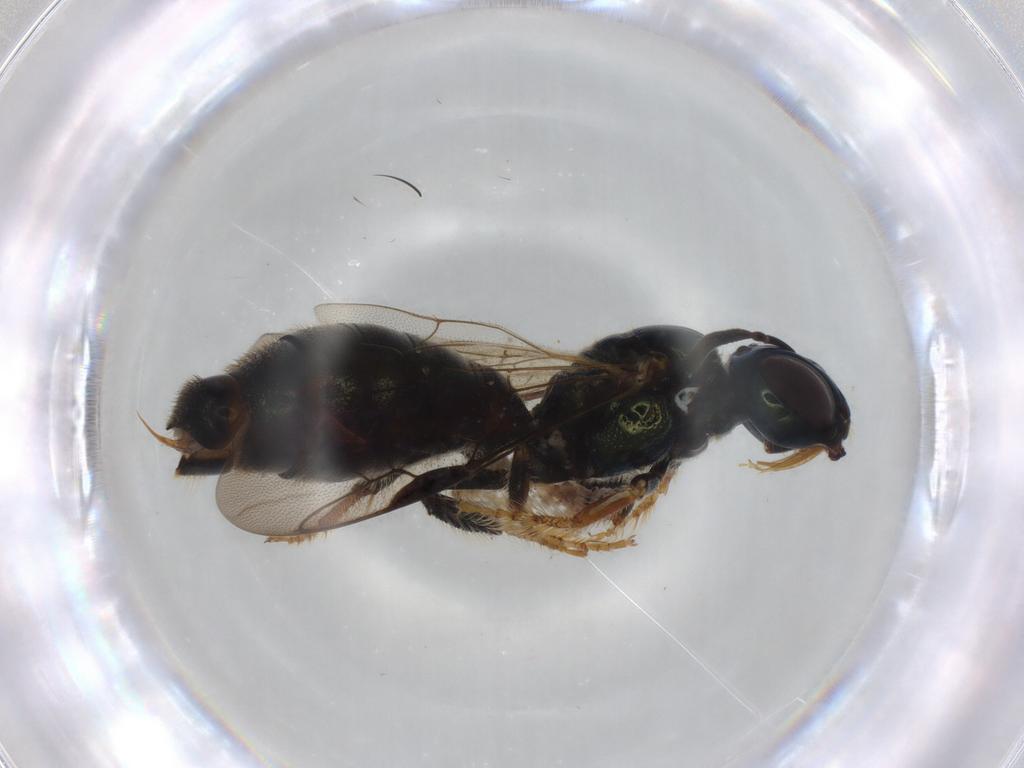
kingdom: Animalia
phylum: Arthropoda
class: Insecta
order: Hymenoptera
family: Apidae
